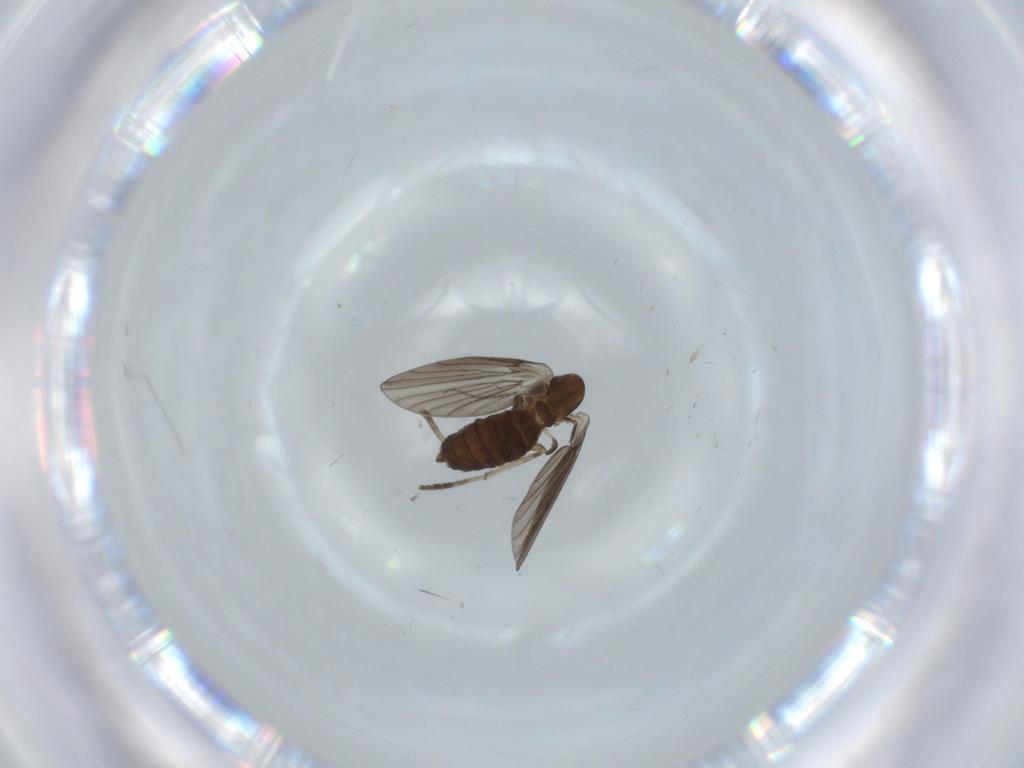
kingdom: Animalia
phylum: Arthropoda
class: Insecta
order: Diptera
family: Psychodidae
